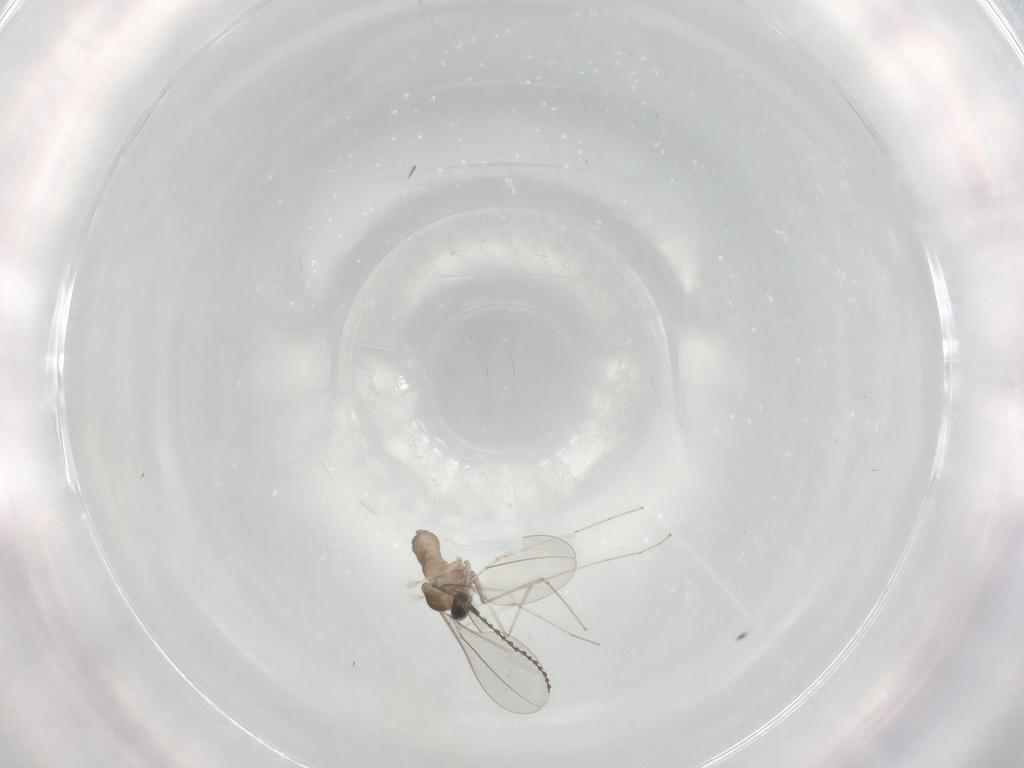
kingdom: Animalia
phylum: Arthropoda
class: Insecta
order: Diptera
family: Cecidomyiidae
